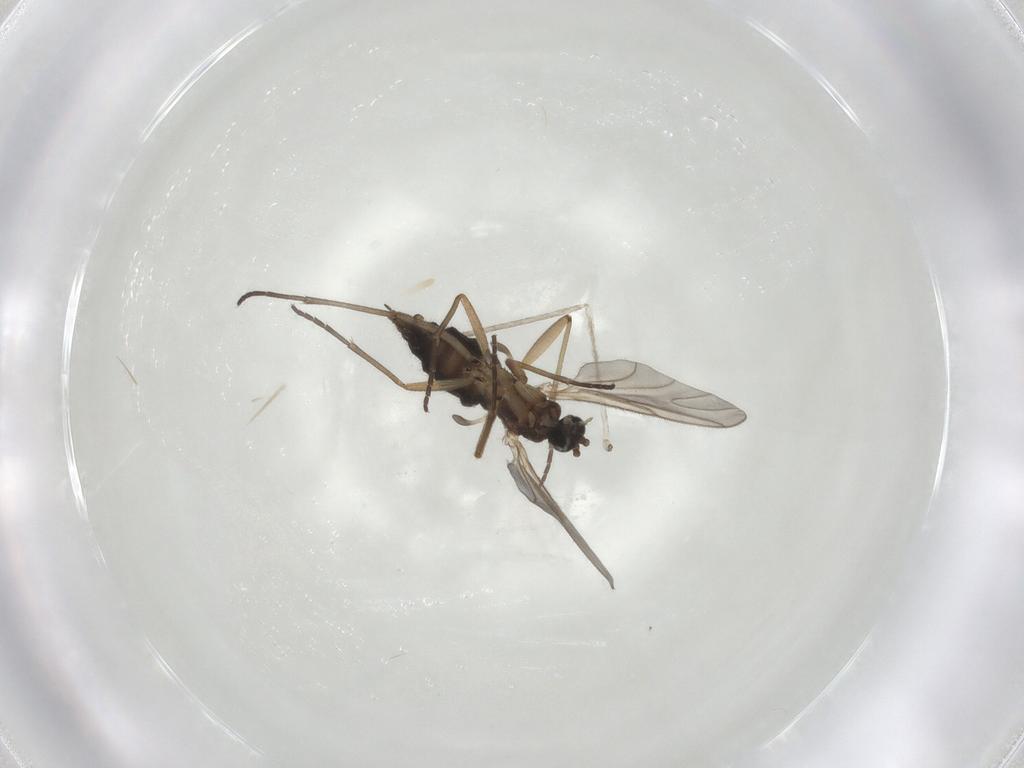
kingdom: Animalia
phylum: Arthropoda
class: Insecta
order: Diptera
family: Sciaridae
